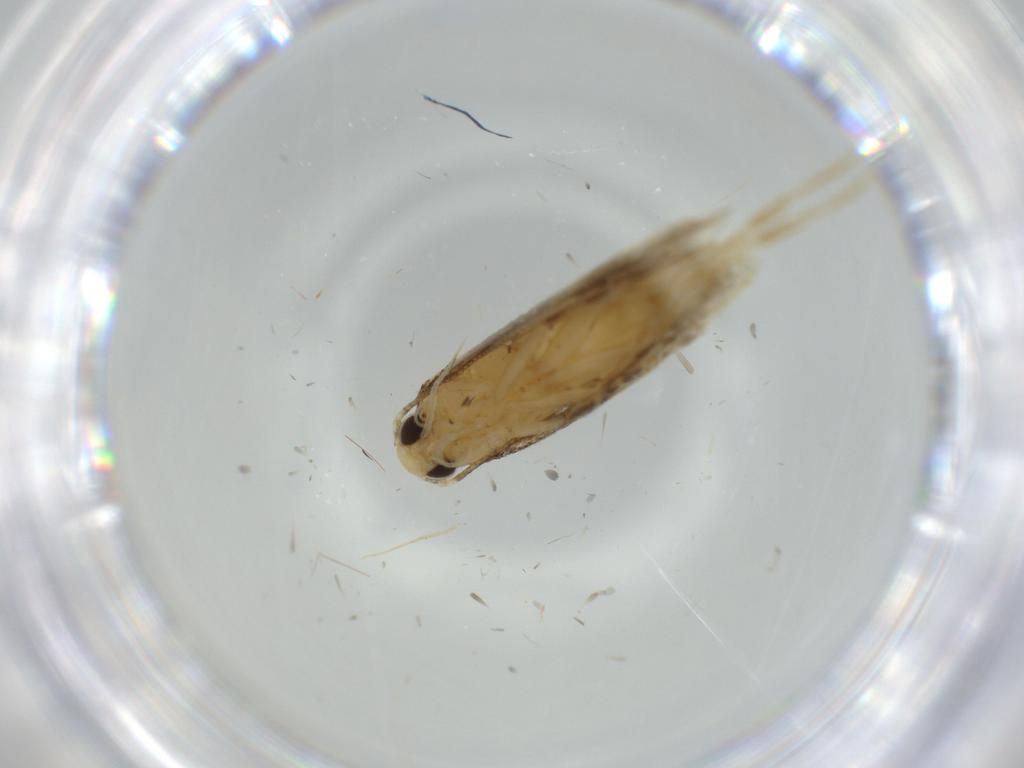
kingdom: Animalia
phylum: Arthropoda
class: Insecta
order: Lepidoptera
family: Autostichidae
